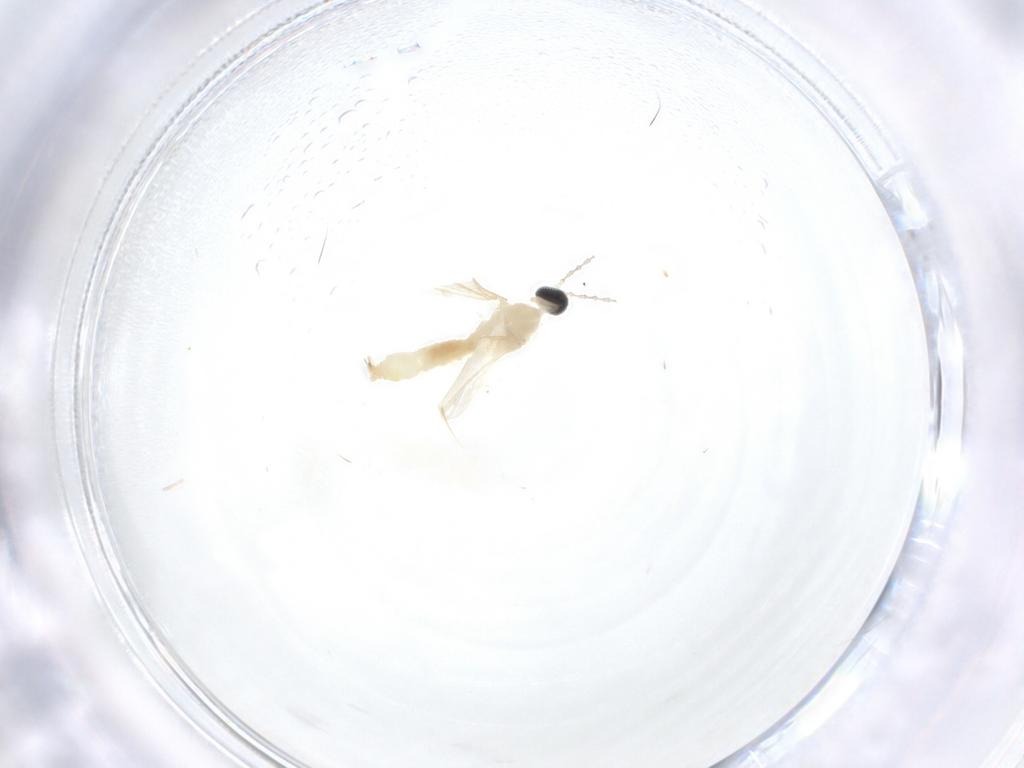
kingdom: Animalia
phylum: Arthropoda
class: Insecta
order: Diptera
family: Cecidomyiidae
